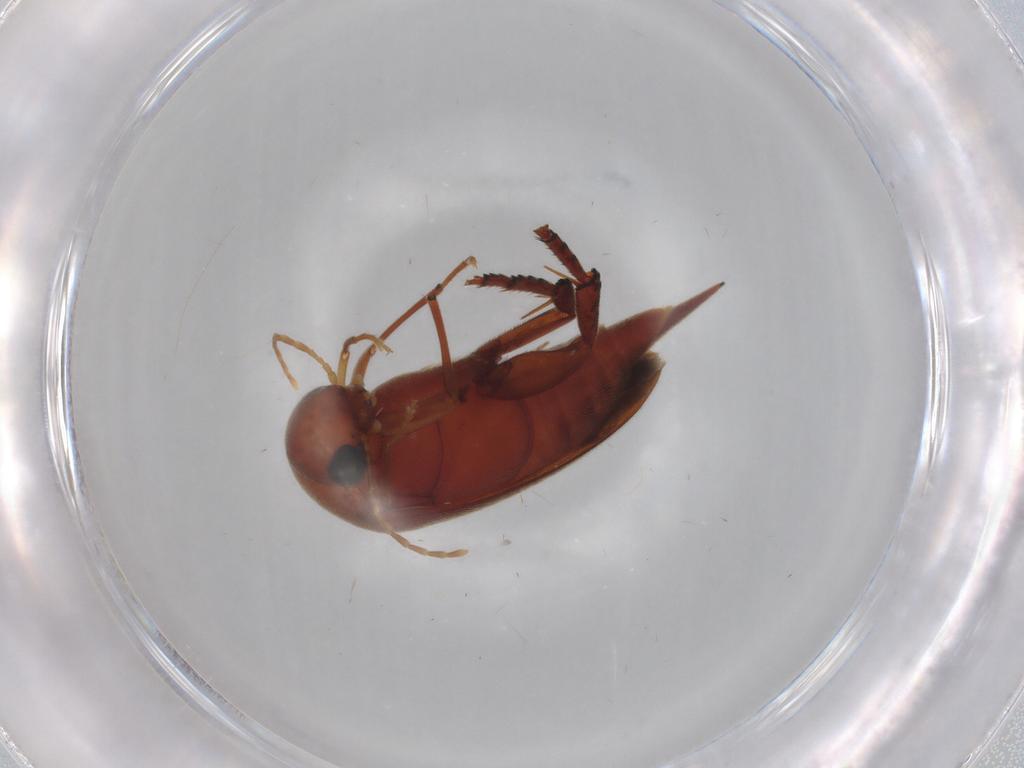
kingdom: Animalia
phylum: Arthropoda
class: Insecta
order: Coleoptera
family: Mordellidae
